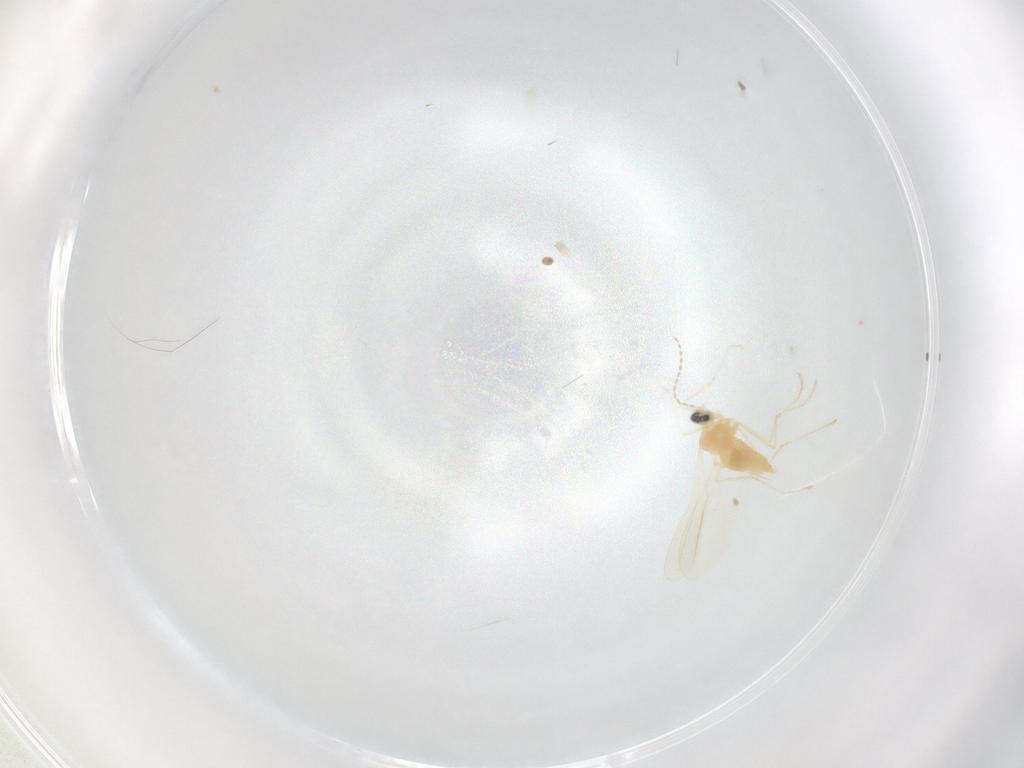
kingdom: Animalia
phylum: Arthropoda
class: Insecta
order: Diptera
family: Cecidomyiidae
